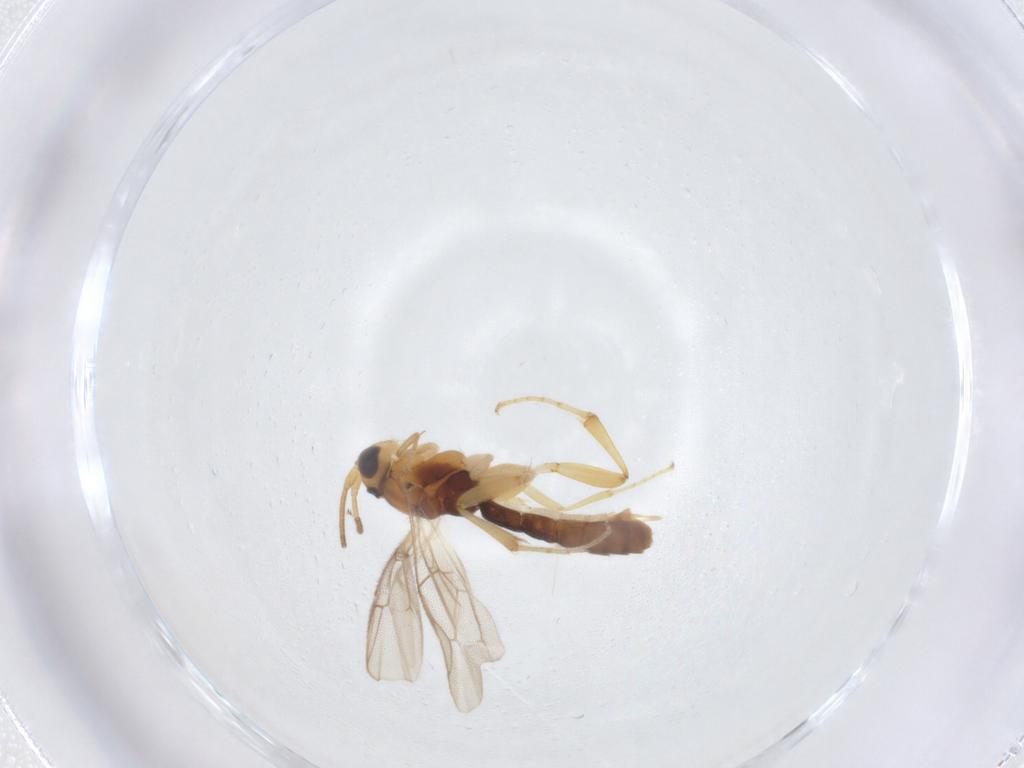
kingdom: Animalia
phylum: Arthropoda
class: Insecta
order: Hymenoptera
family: Ichneumonidae
